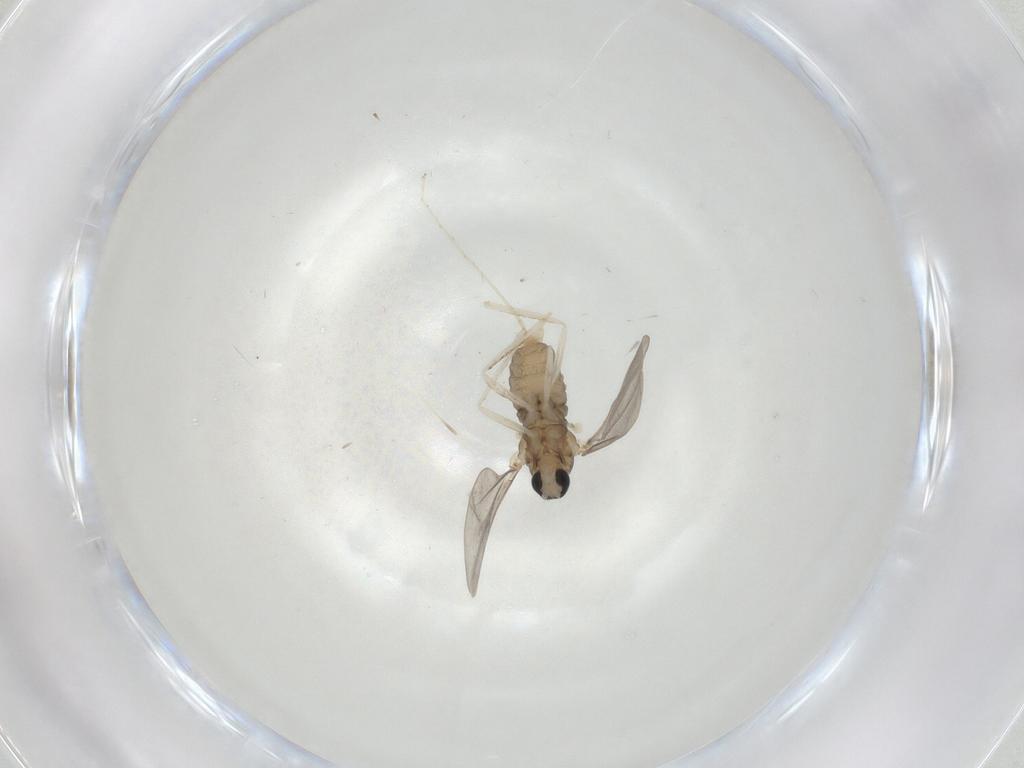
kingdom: Animalia
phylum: Arthropoda
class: Insecta
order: Diptera
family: Cecidomyiidae
